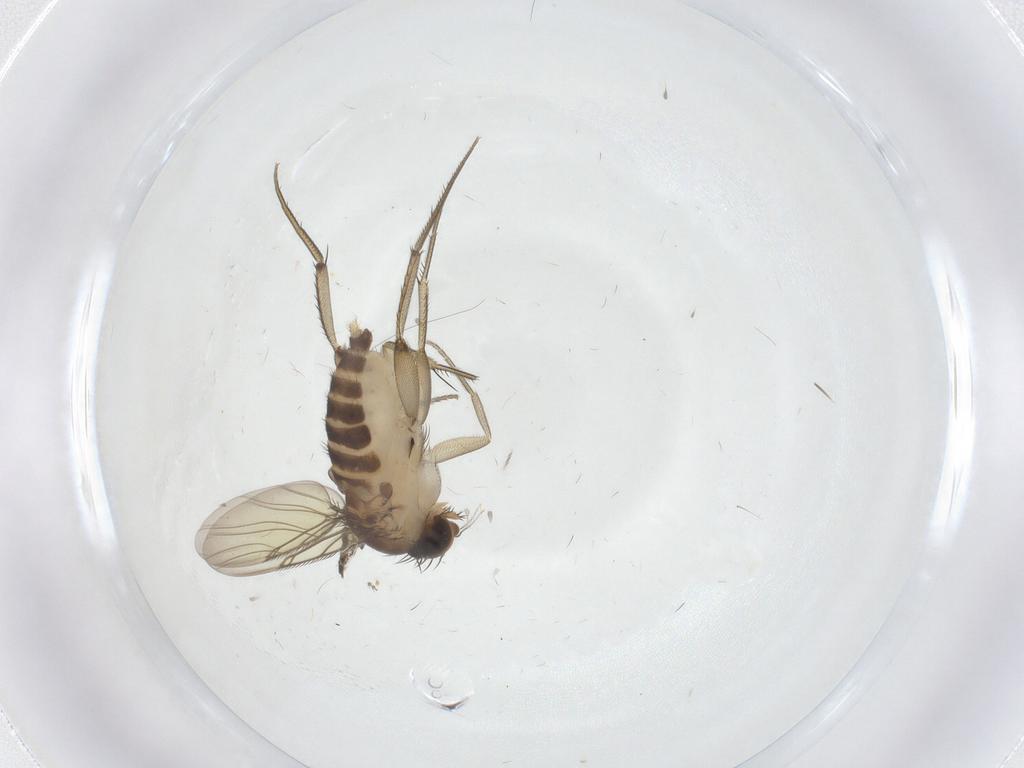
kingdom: Animalia
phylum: Arthropoda
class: Insecta
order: Diptera
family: Phoridae
